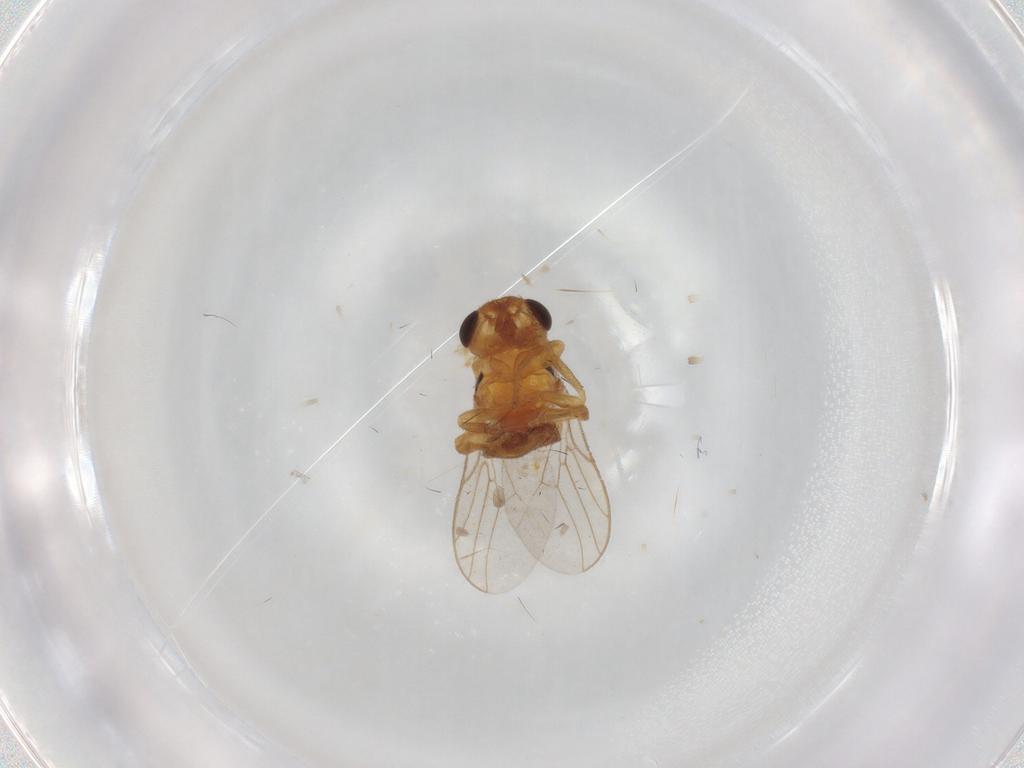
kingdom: Animalia
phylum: Arthropoda
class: Insecta
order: Diptera
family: Chloropidae
